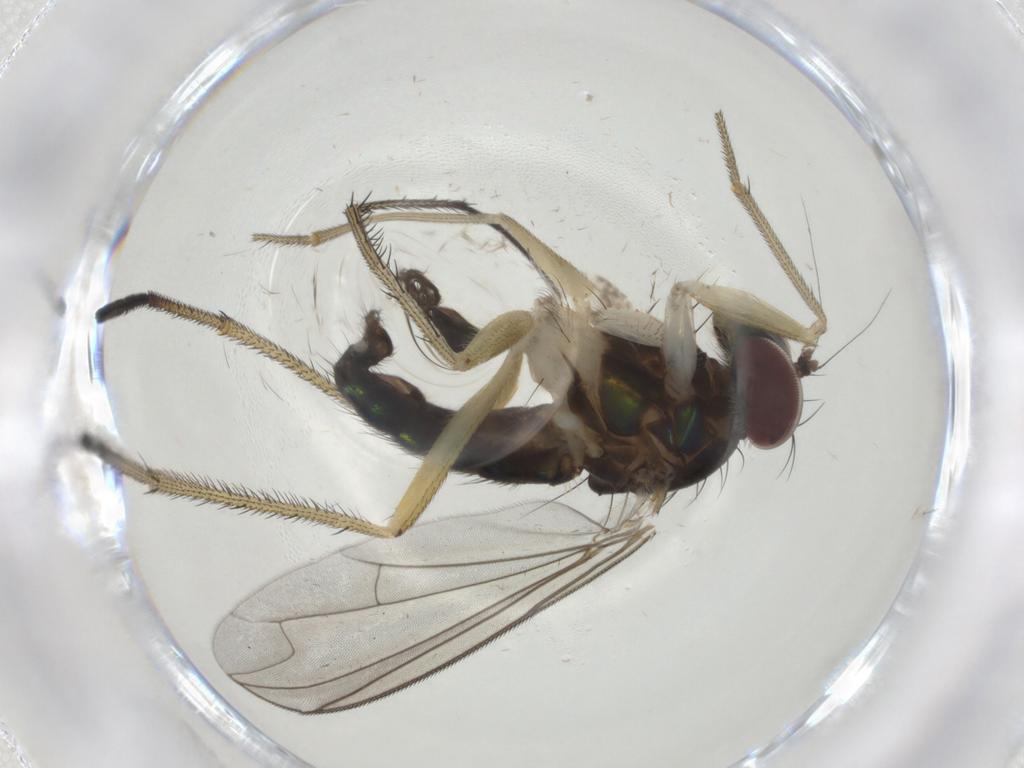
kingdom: Animalia
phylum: Arthropoda
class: Insecta
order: Diptera
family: Dolichopodidae
